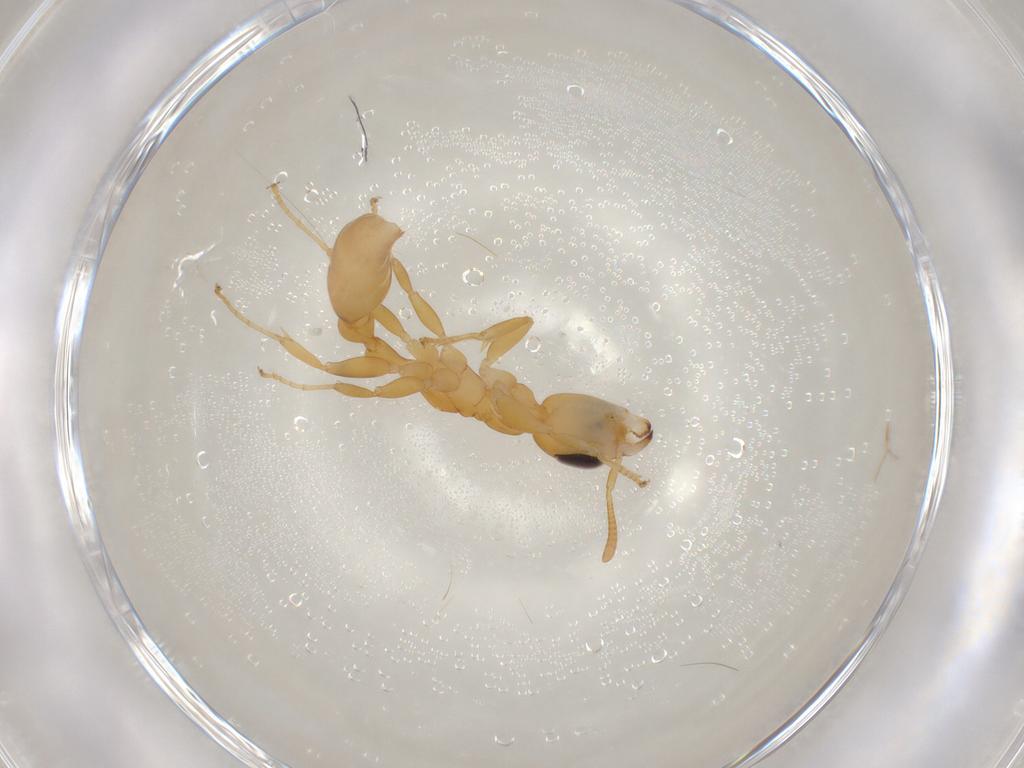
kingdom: Animalia
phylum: Arthropoda
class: Insecta
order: Hymenoptera
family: Formicidae
